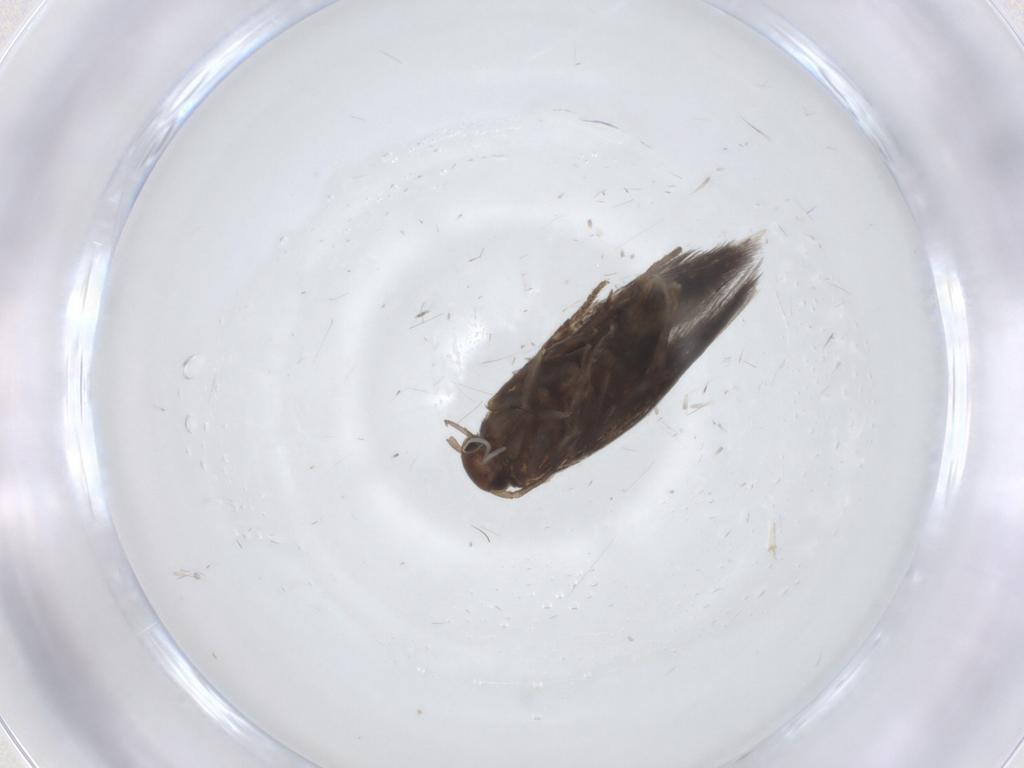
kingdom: Animalia
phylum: Arthropoda
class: Insecta
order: Lepidoptera
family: Elachistidae
